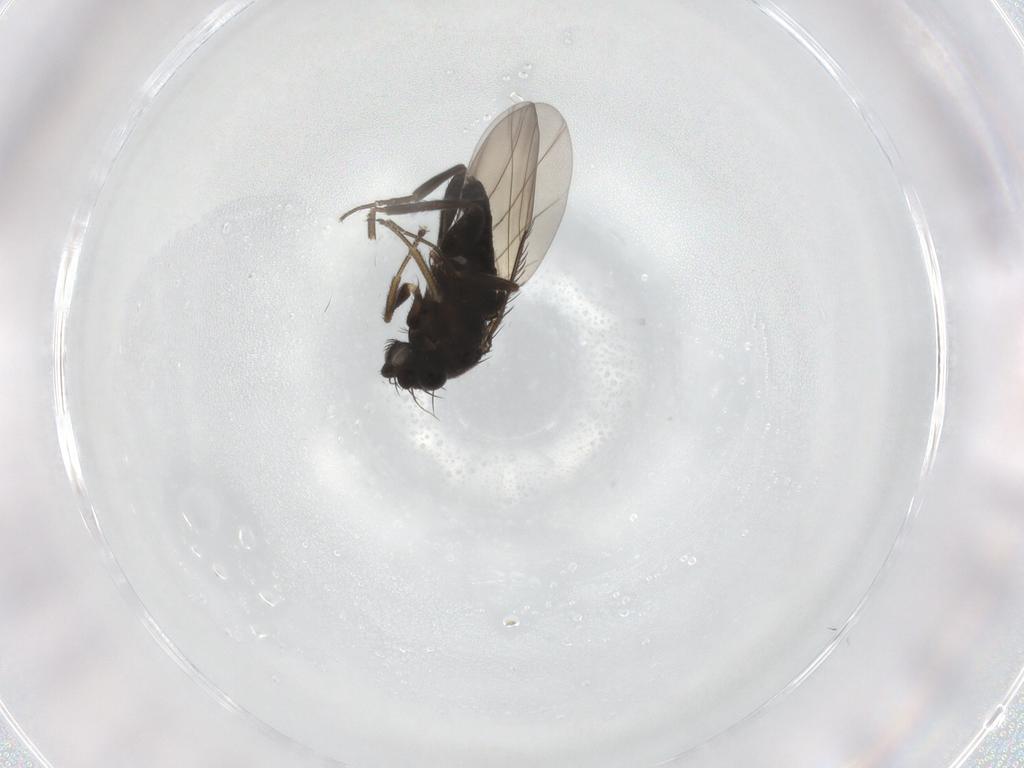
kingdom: Animalia
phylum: Arthropoda
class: Insecta
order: Diptera
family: Phoridae
